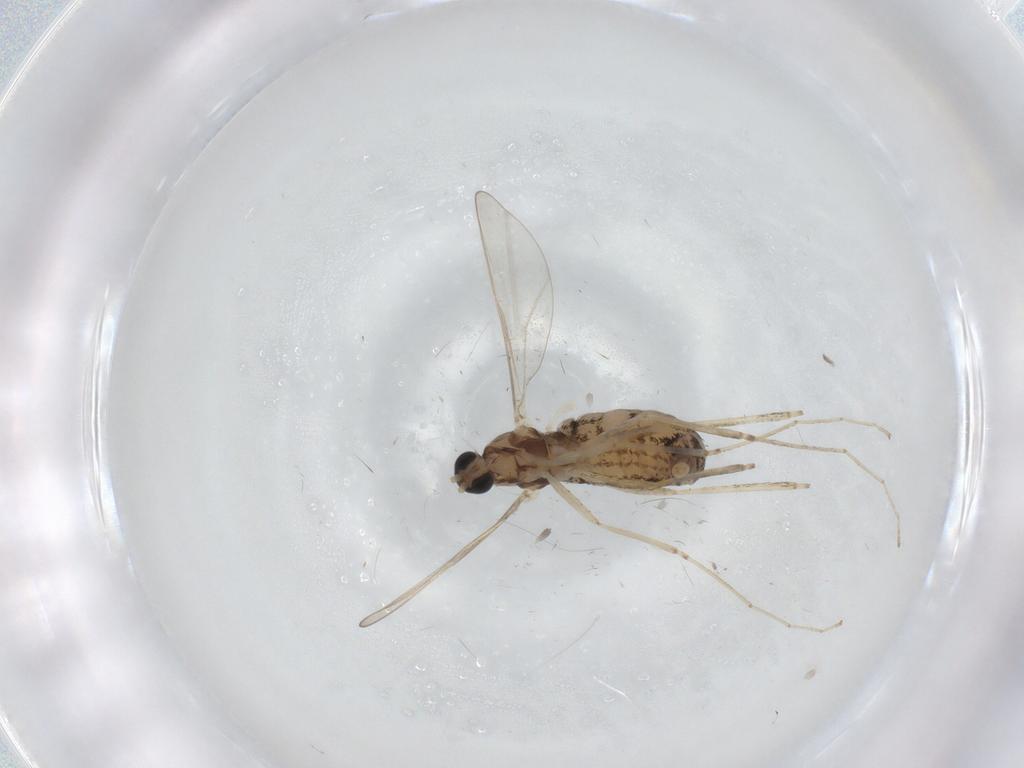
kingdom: Animalia
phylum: Arthropoda
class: Insecta
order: Diptera
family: Cecidomyiidae
